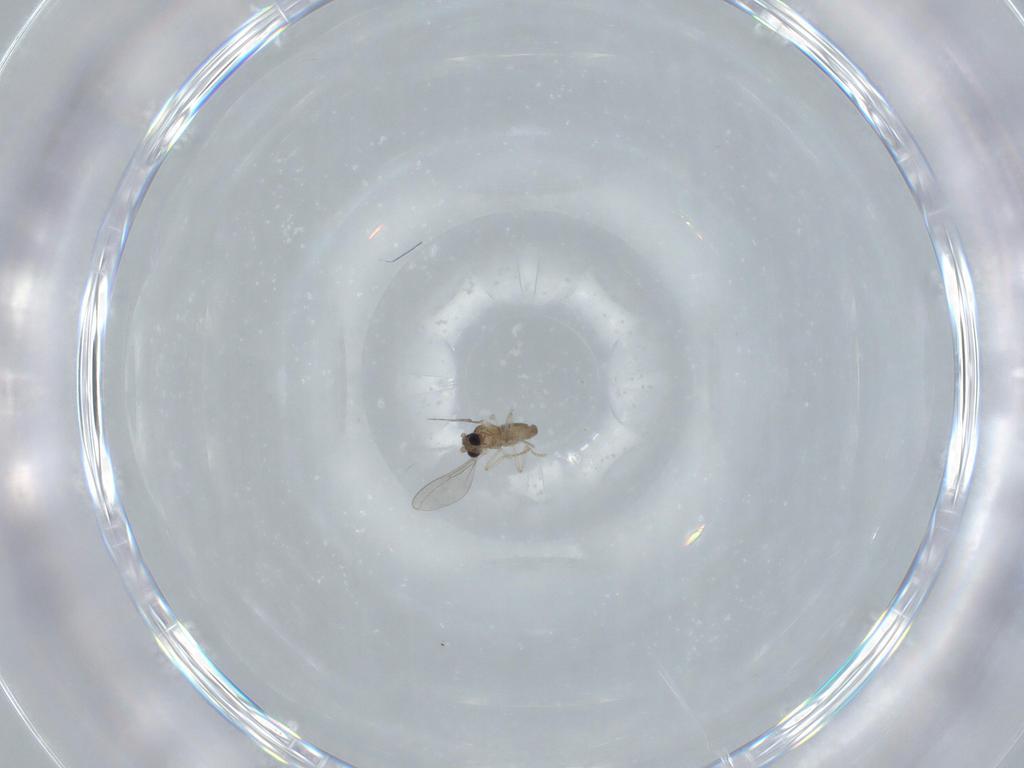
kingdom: Animalia
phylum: Arthropoda
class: Insecta
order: Diptera
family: Cecidomyiidae
